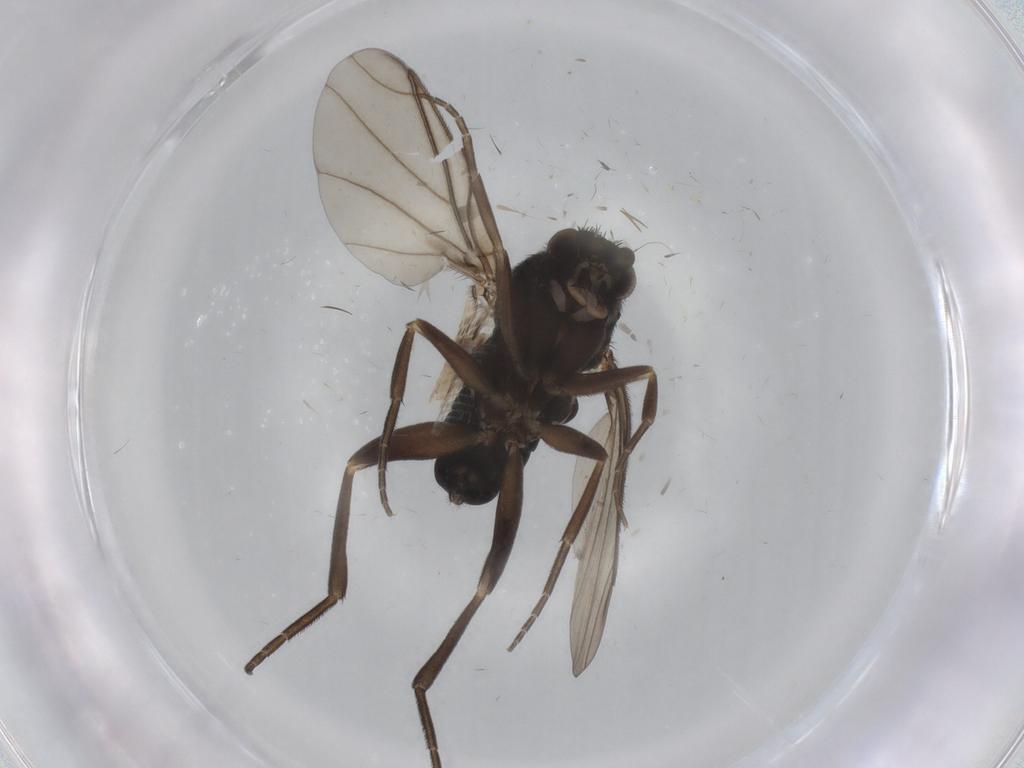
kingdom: Animalia
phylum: Arthropoda
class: Insecta
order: Diptera
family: Phoridae
